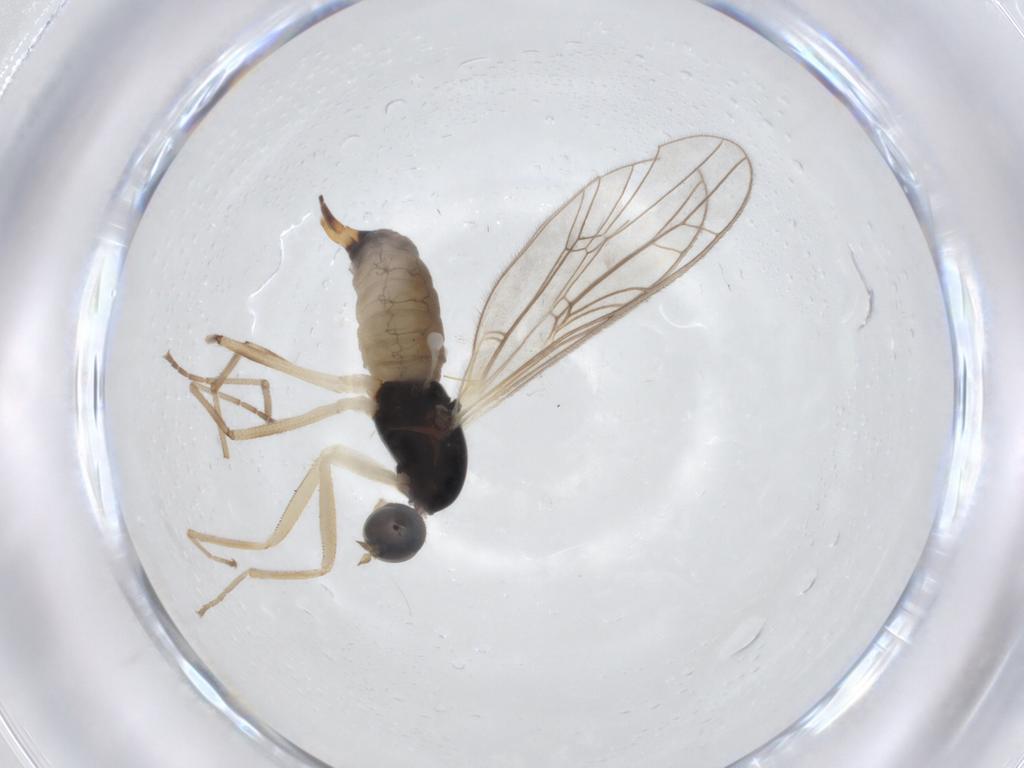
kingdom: Animalia
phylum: Arthropoda
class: Insecta
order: Diptera
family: Empididae
